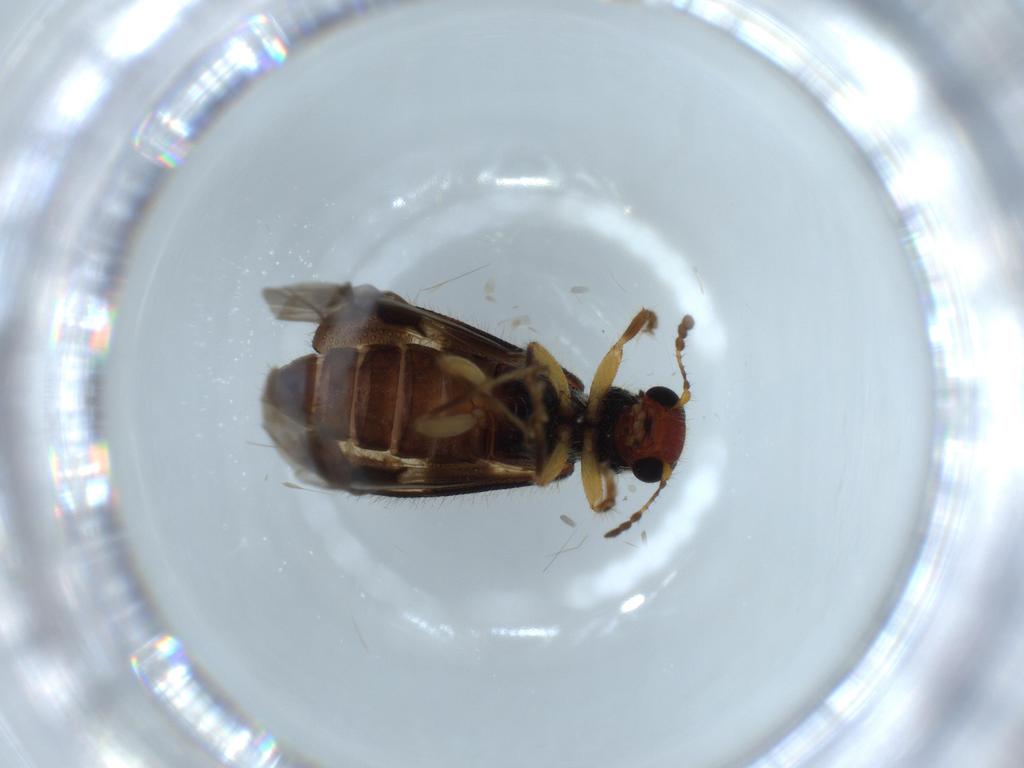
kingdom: Animalia
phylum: Arthropoda
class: Insecta
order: Coleoptera
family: Cleridae
